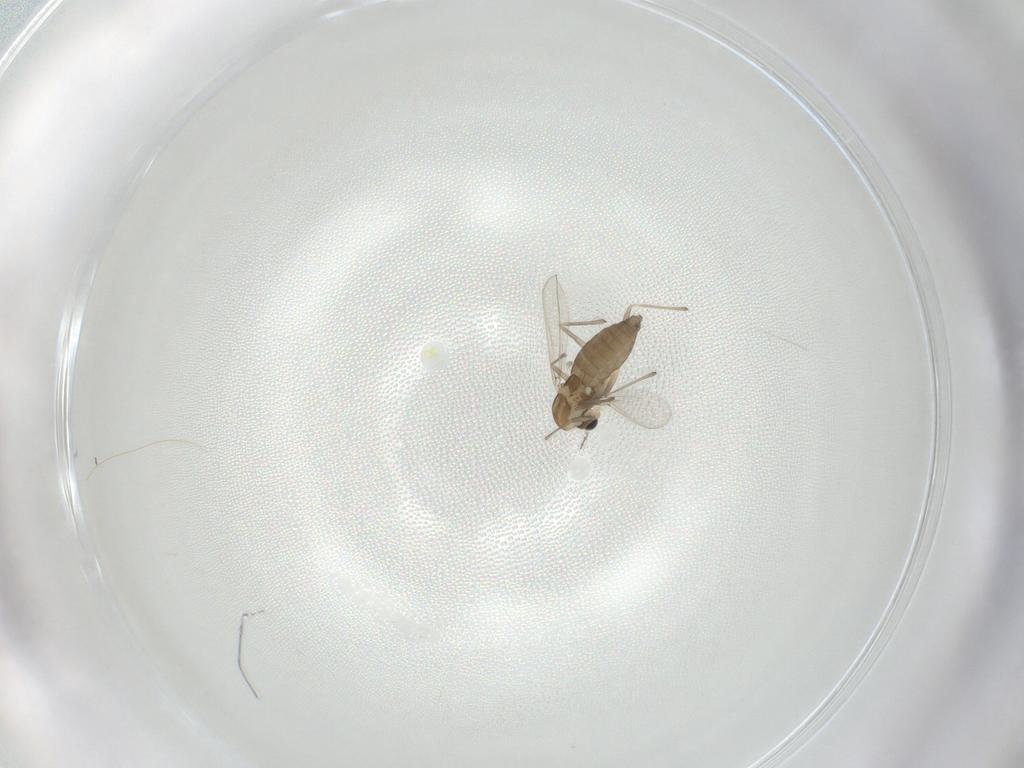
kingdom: Animalia
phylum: Arthropoda
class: Insecta
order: Diptera
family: Chironomidae
